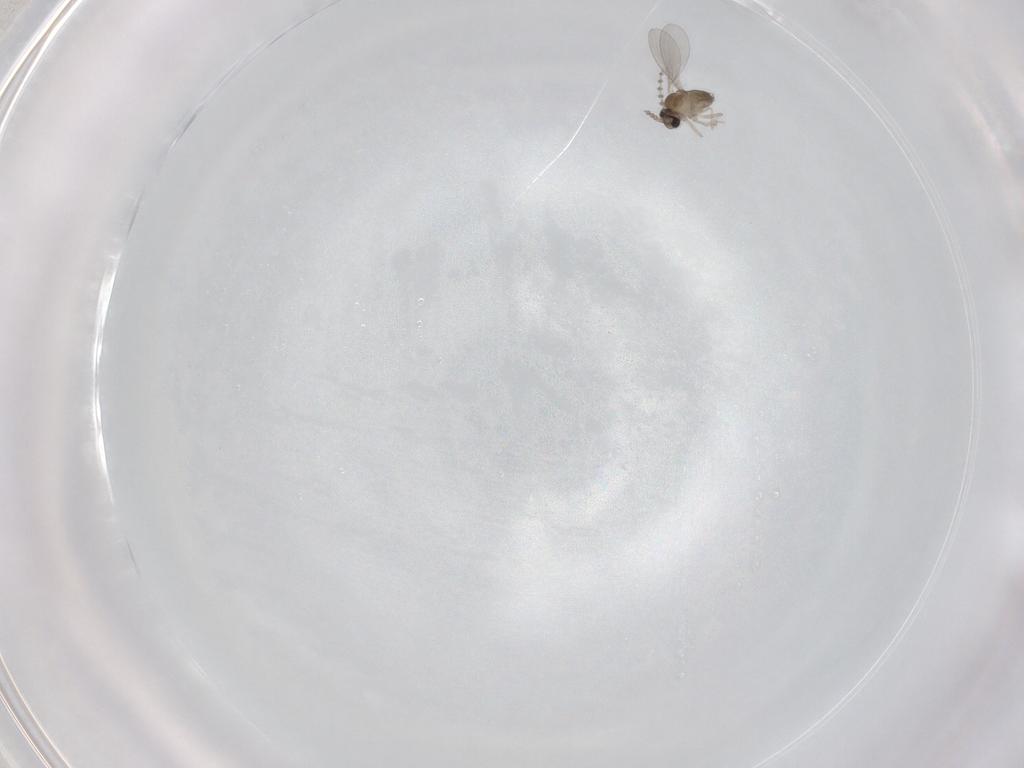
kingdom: Animalia
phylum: Arthropoda
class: Insecta
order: Diptera
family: Cecidomyiidae
